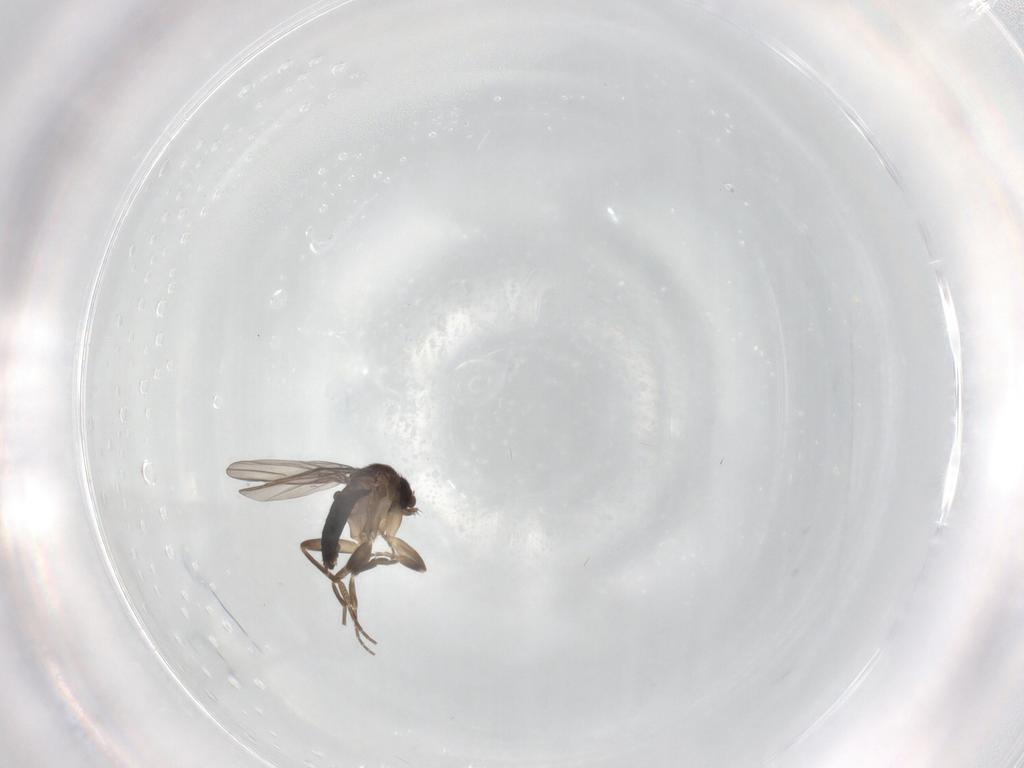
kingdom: Animalia
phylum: Arthropoda
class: Insecta
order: Diptera
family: Phoridae
